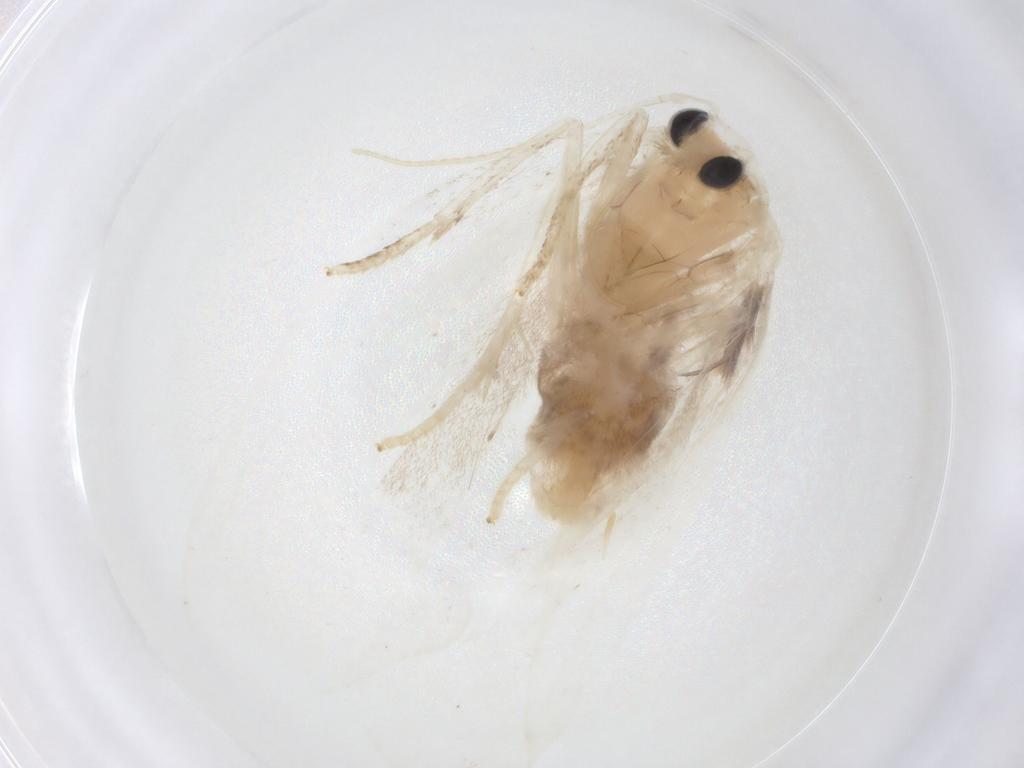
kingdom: Animalia
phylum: Arthropoda
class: Insecta
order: Lepidoptera
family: Erebidae
